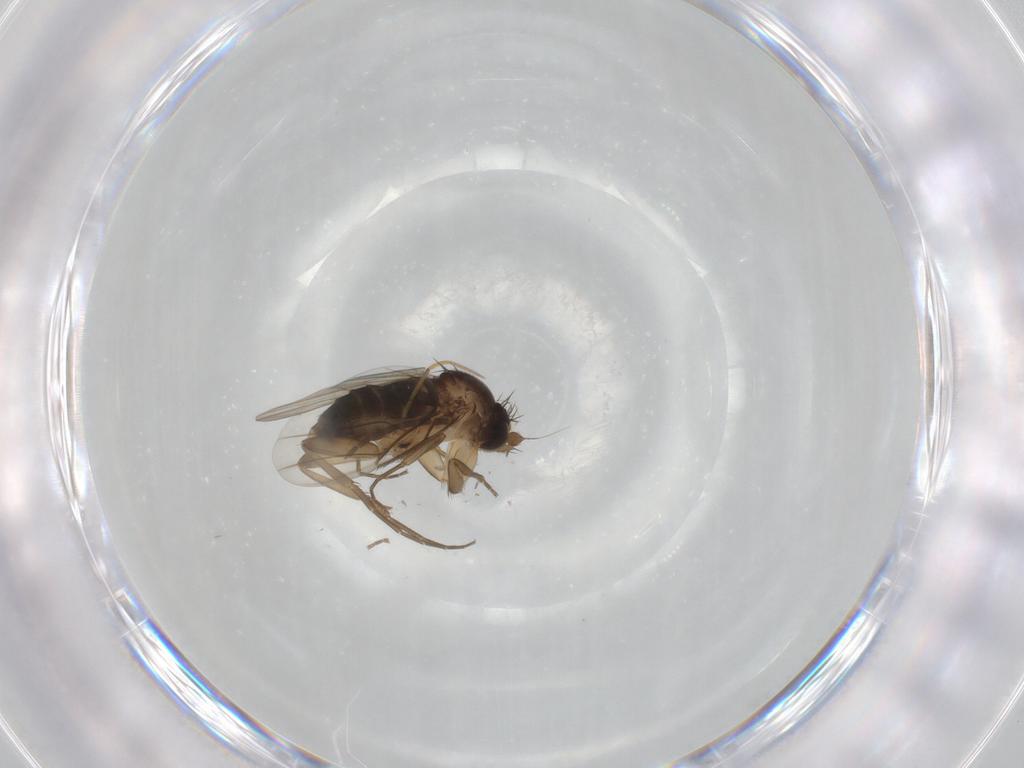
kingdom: Animalia
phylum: Arthropoda
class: Insecta
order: Diptera
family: Phoridae
